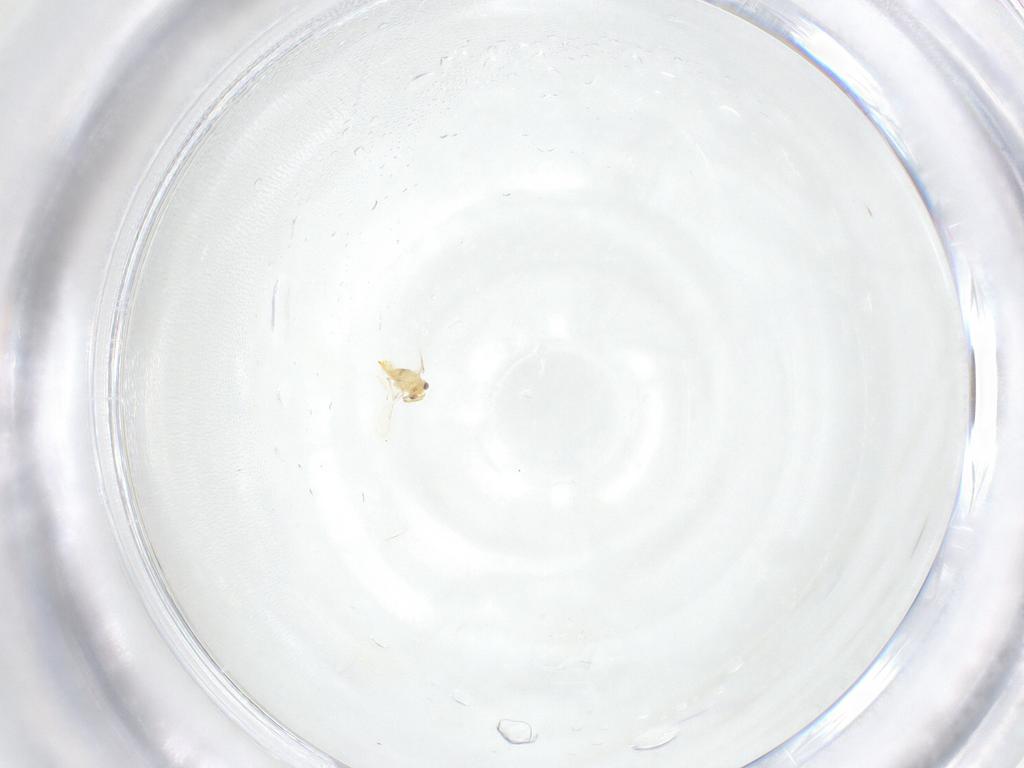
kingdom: Animalia
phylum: Arthropoda
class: Insecta
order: Hymenoptera
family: Aphelinidae
